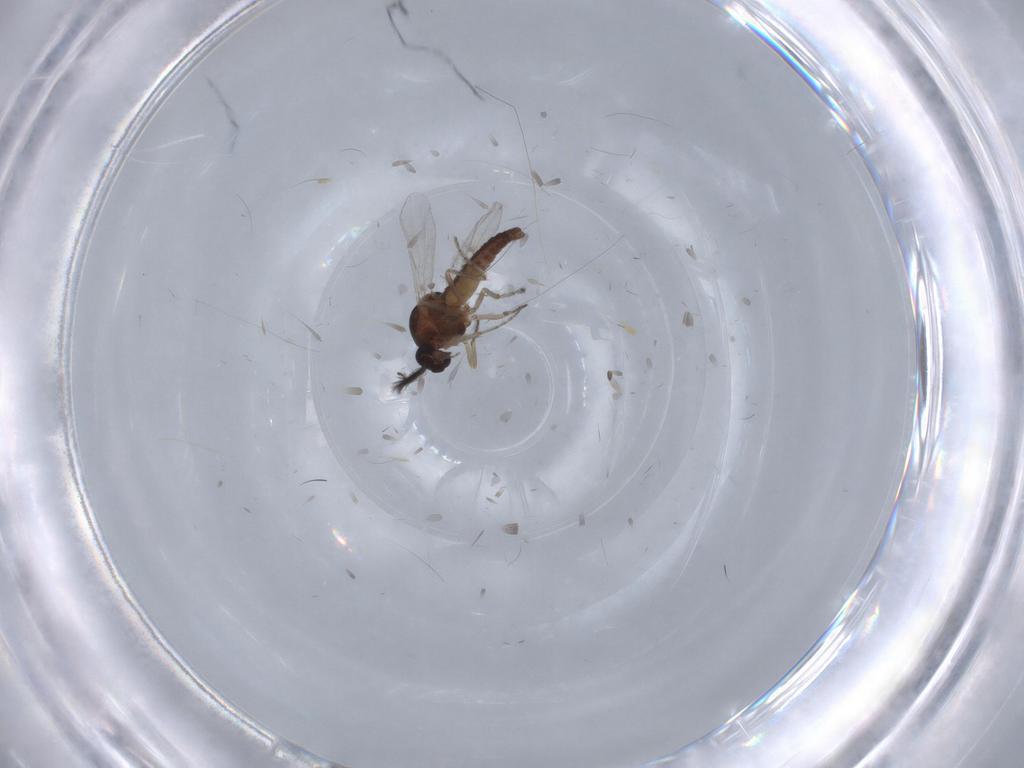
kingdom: Animalia
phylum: Arthropoda
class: Insecta
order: Diptera
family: Ceratopogonidae
